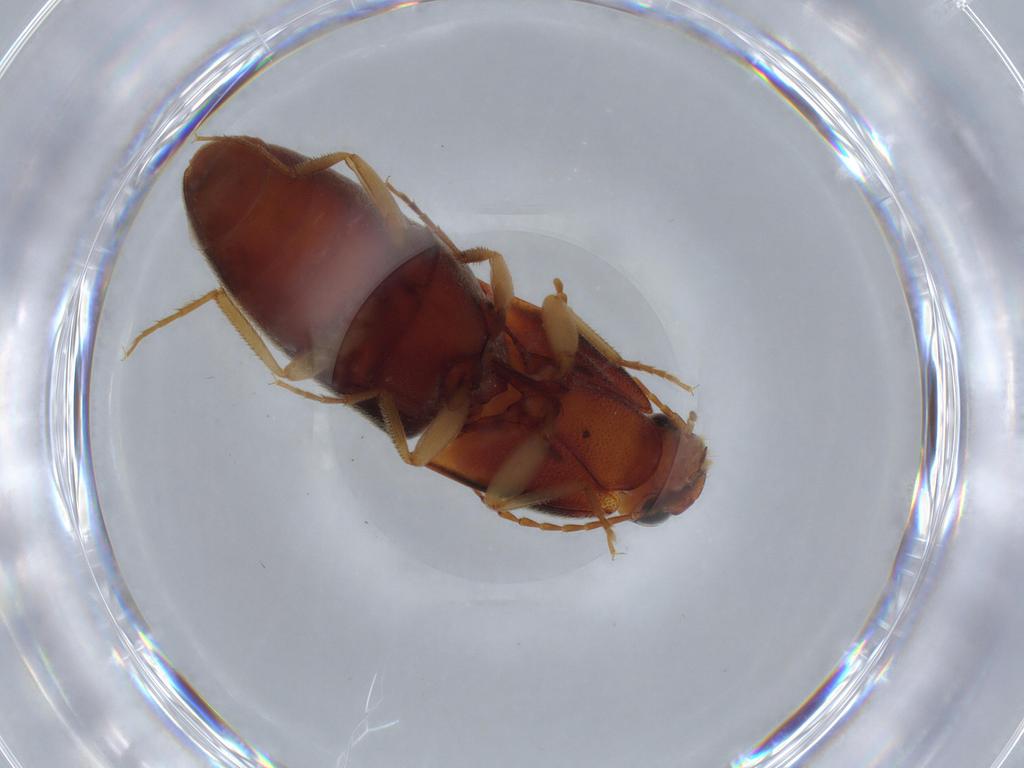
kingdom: Animalia
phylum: Arthropoda
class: Insecta
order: Coleoptera
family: Elateridae
